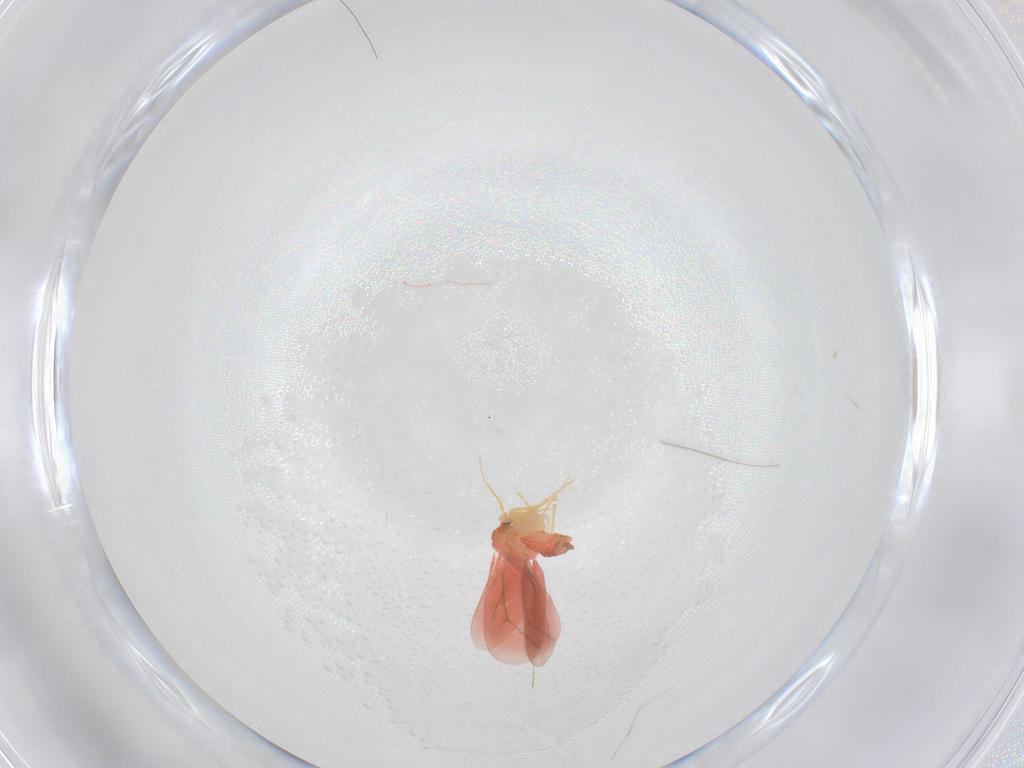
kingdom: Animalia
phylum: Arthropoda
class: Insecta
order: Hemiptera
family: Aleyrodidae
